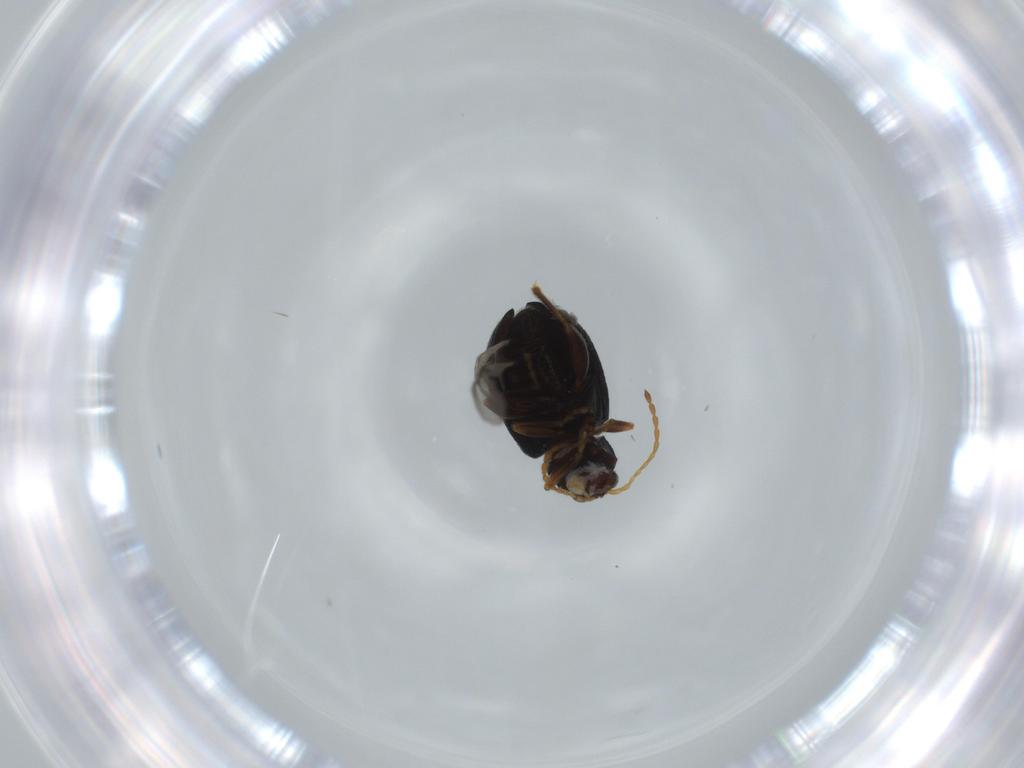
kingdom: Animalia
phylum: Arthropoda
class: Insecta
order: Coleoptera
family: Chrysomelidae
